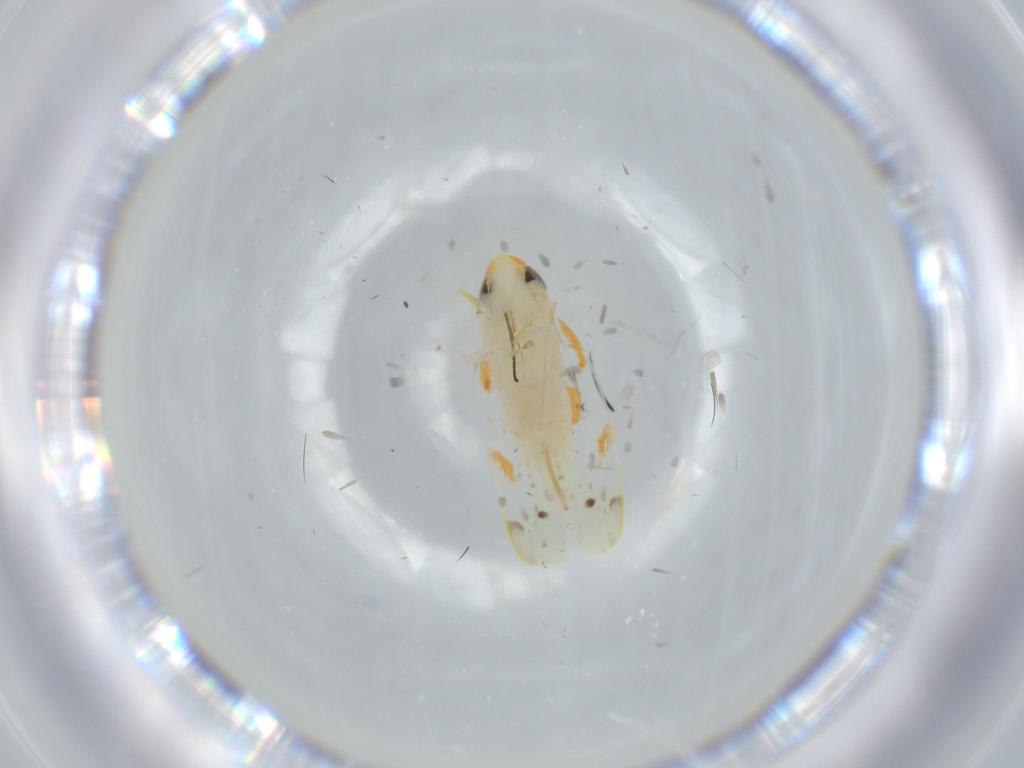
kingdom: Animalia
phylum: Arthropoda
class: Insecta
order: Hemiptera
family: Cicadellidae
